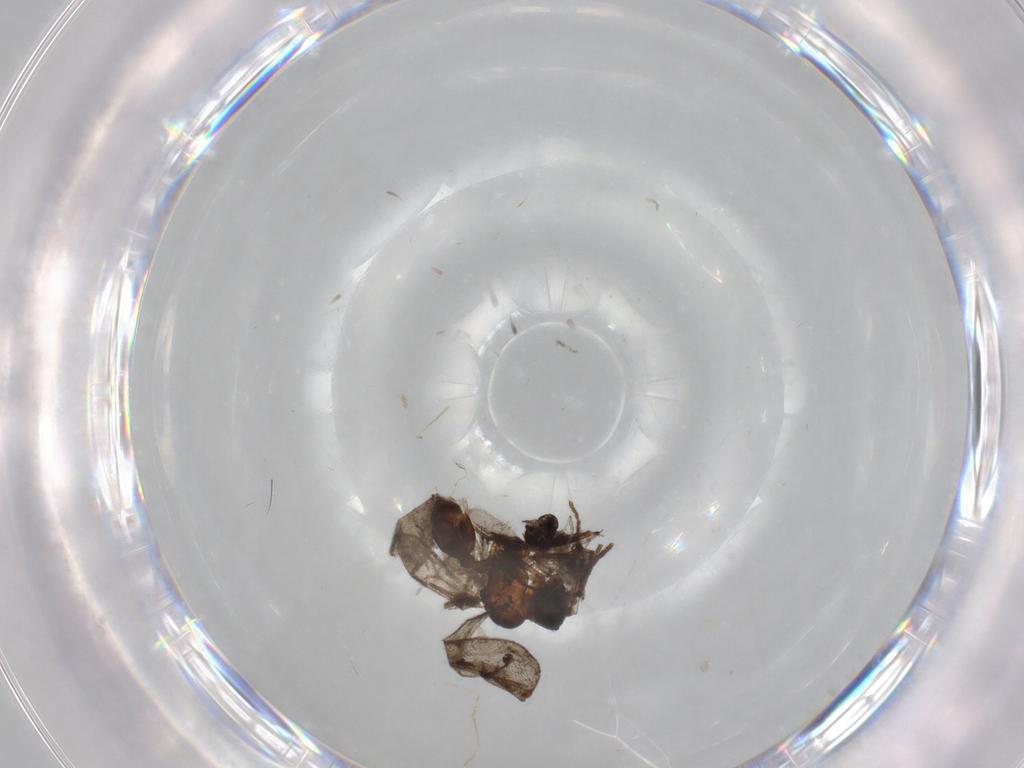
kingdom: Animalia
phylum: Arthropoda
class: Insecta
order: Diptera
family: Chironomidae
